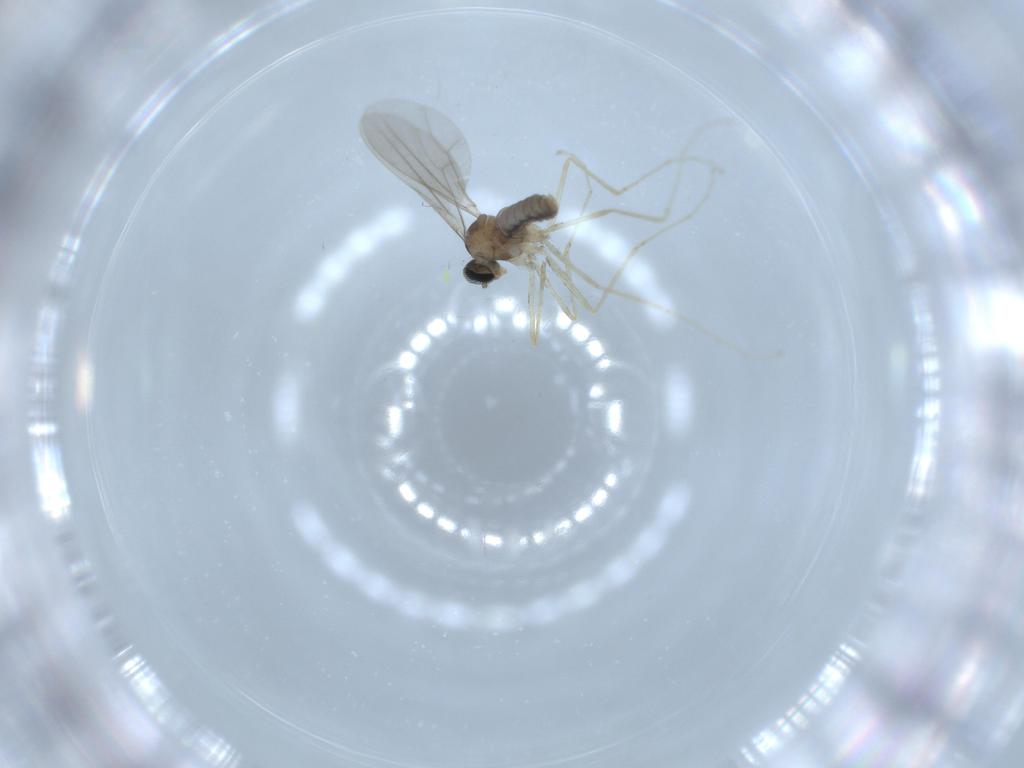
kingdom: Animalia
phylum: Arthropoda
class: Insecta
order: Diptera
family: Cecidomyiidae
